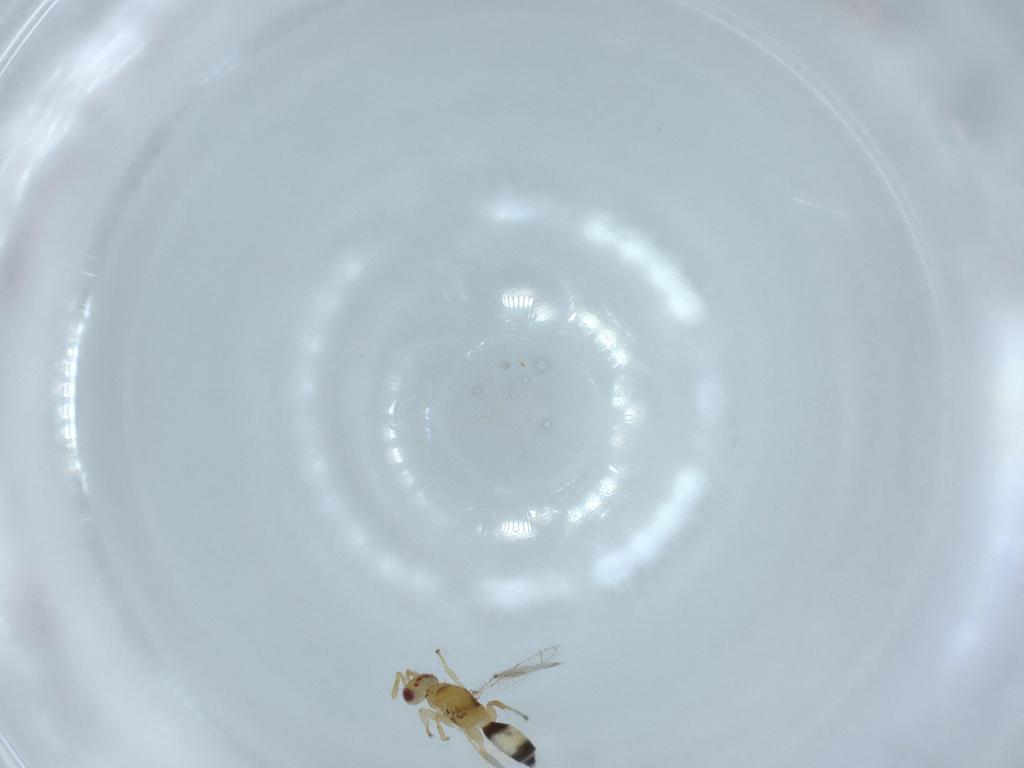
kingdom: Animalia
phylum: Arthropoda
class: Insecta
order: Hymenoptera
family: Torymidae
